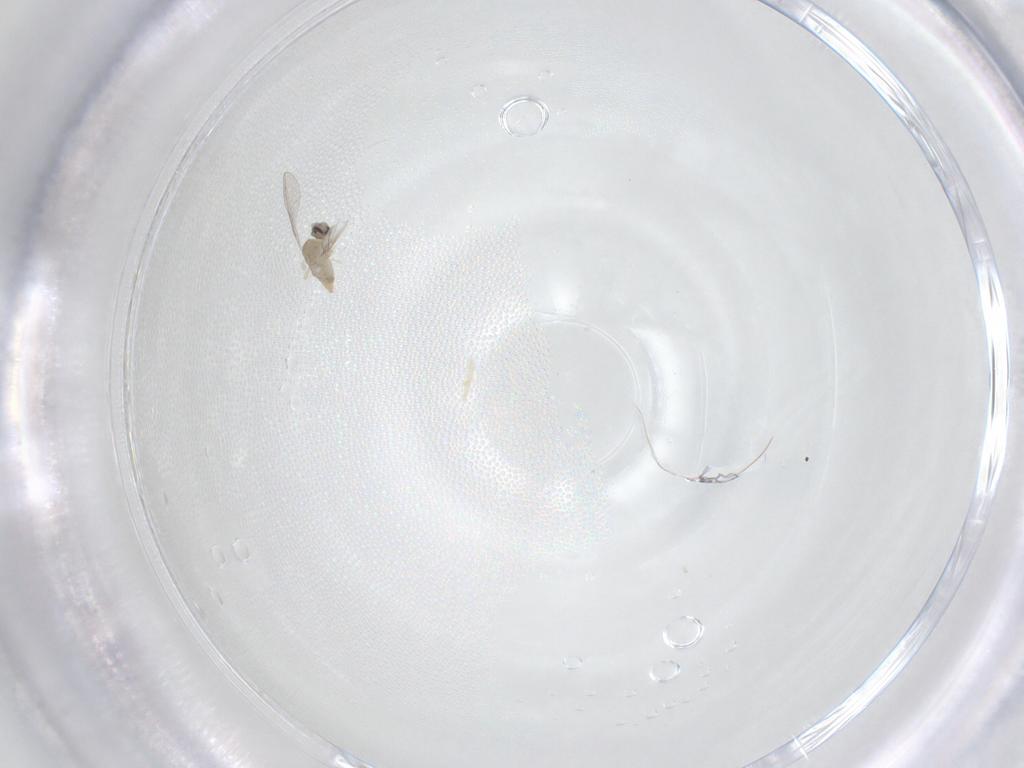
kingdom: Animalia
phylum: Arthropoda
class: Insecta
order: Diptera
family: Cecidomyiidae
